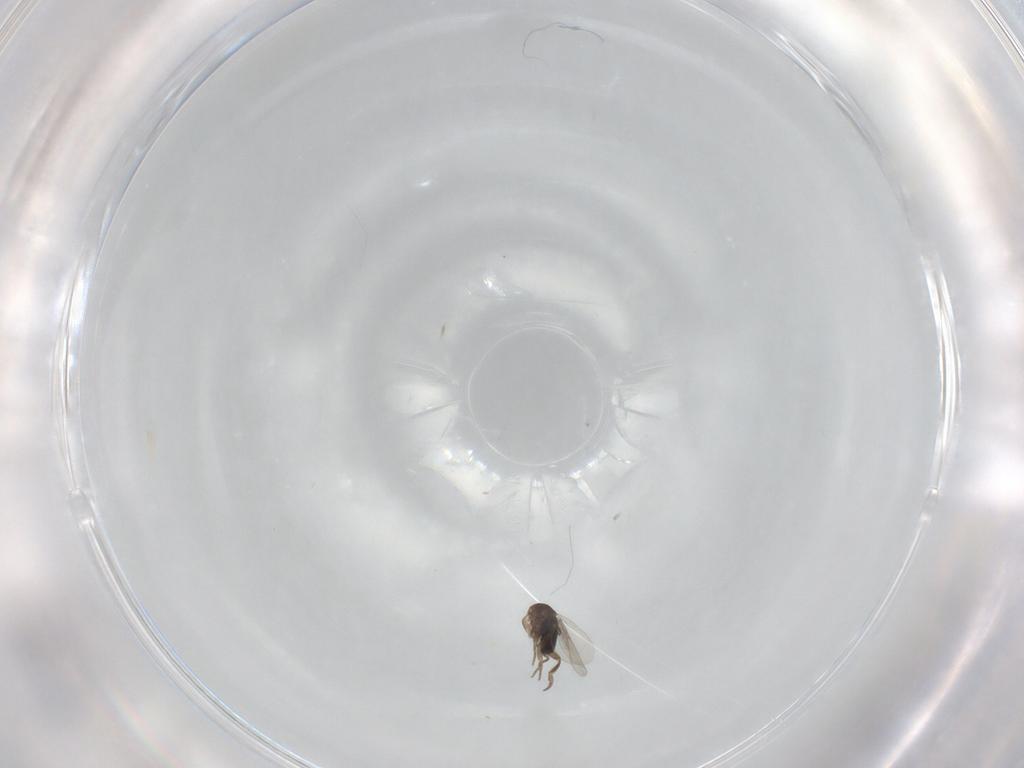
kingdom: Animalia
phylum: Arthropoda
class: Insecta
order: Diptera
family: Phoridae
